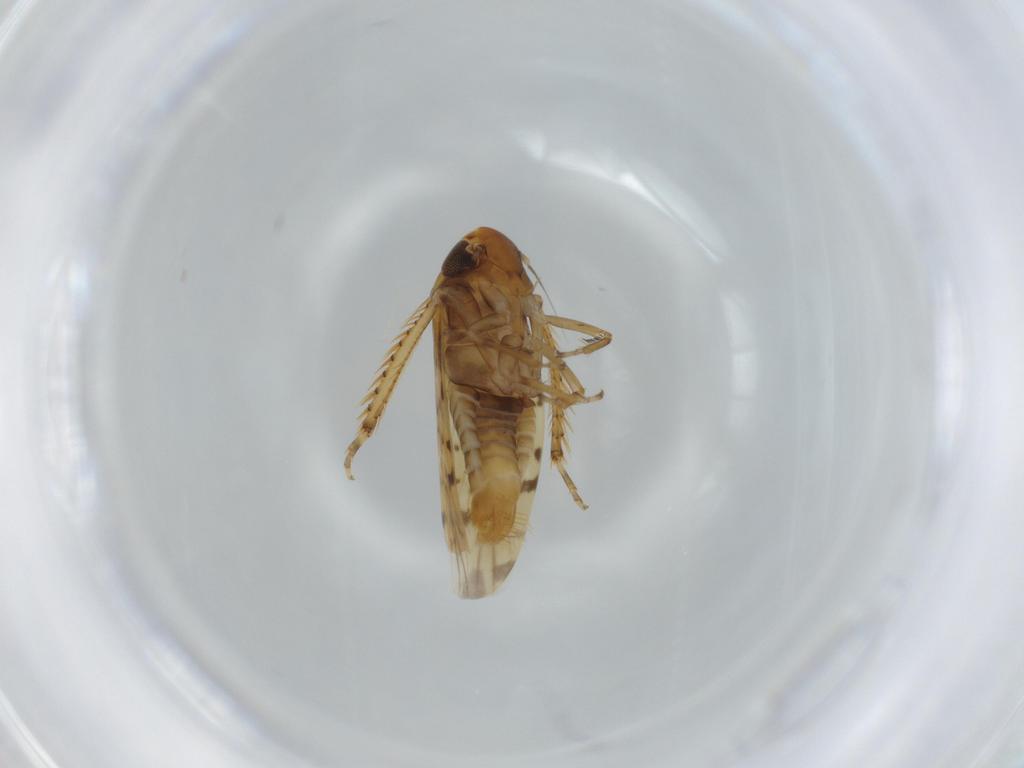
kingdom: Animalia
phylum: Arthropoda
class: Insecta
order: Hemiptera
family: Cicadellidae
